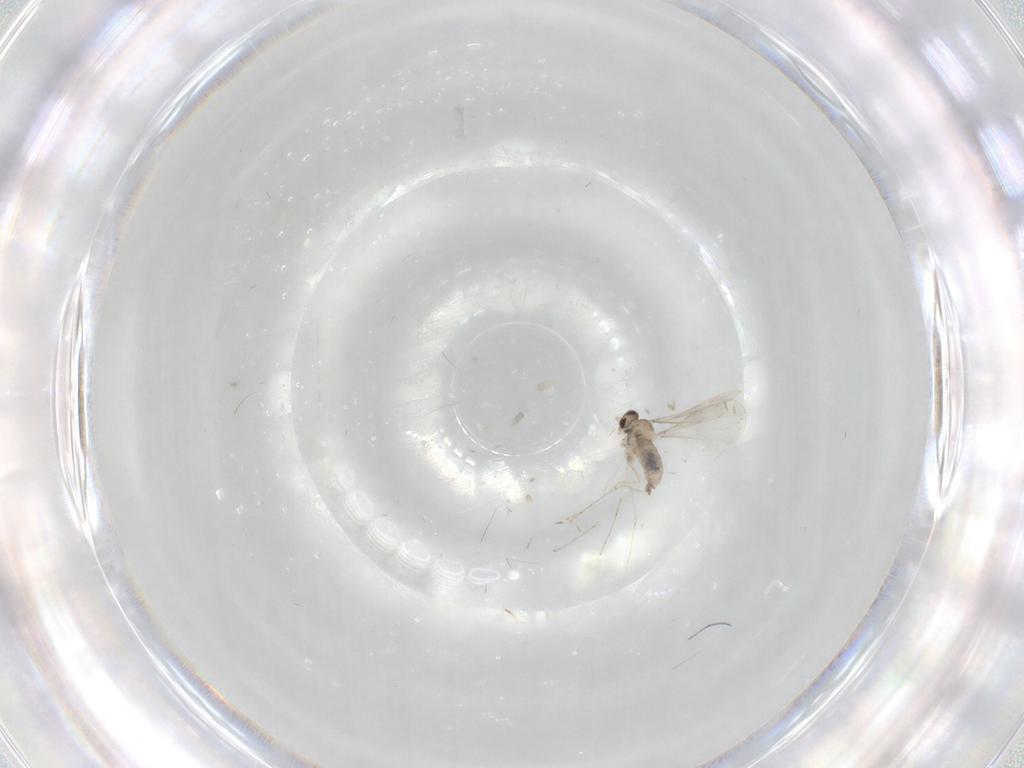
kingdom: Animalia
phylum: Arthropoda
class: Insecta
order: Diptera
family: Chironomidae
